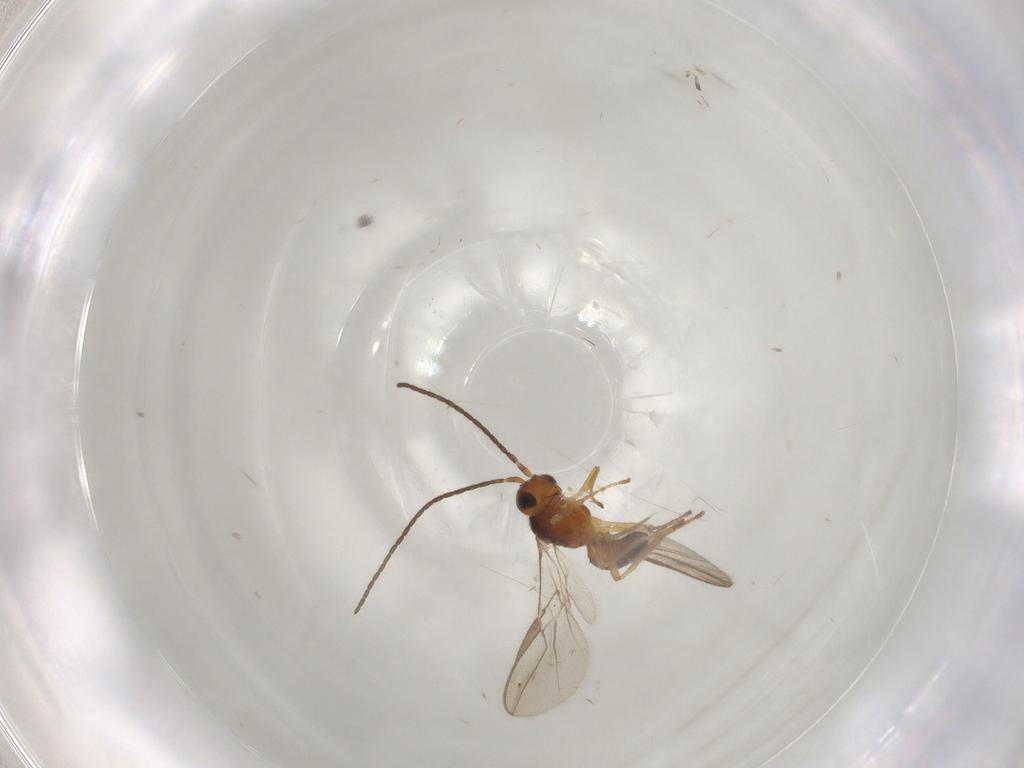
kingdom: Animalia
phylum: Arthropoda
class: Insecta
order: Hymenoptera
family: Braconidae
